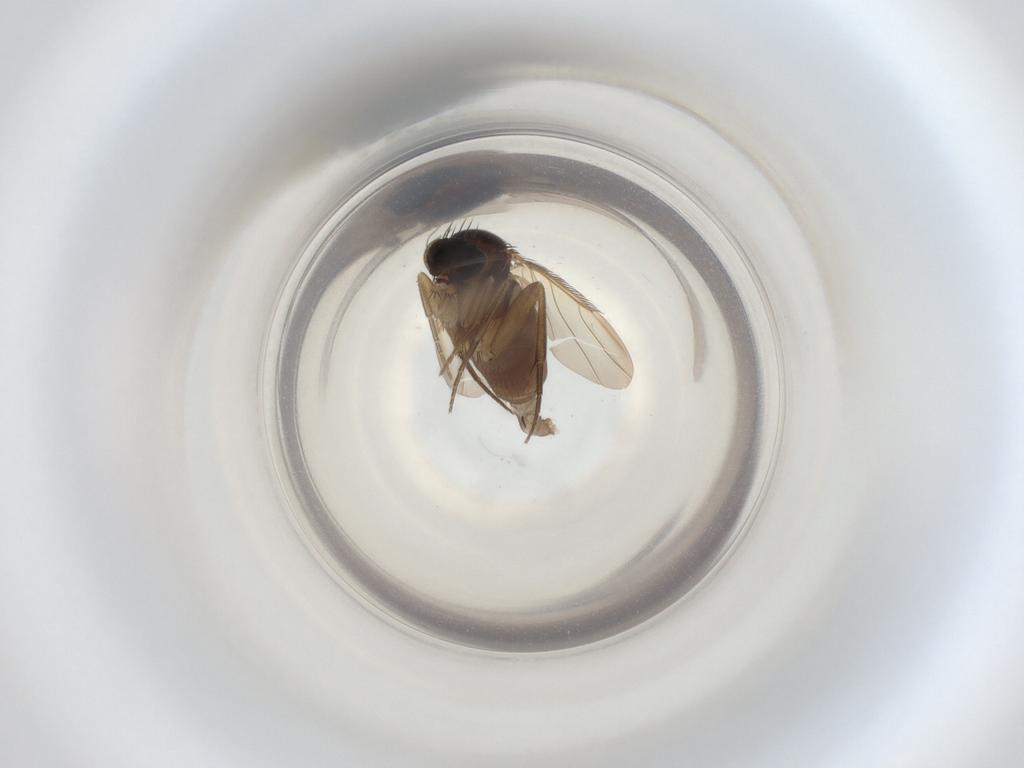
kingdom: Animalia
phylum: Arthropoda
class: Insecta
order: Diptera
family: Phoridae
